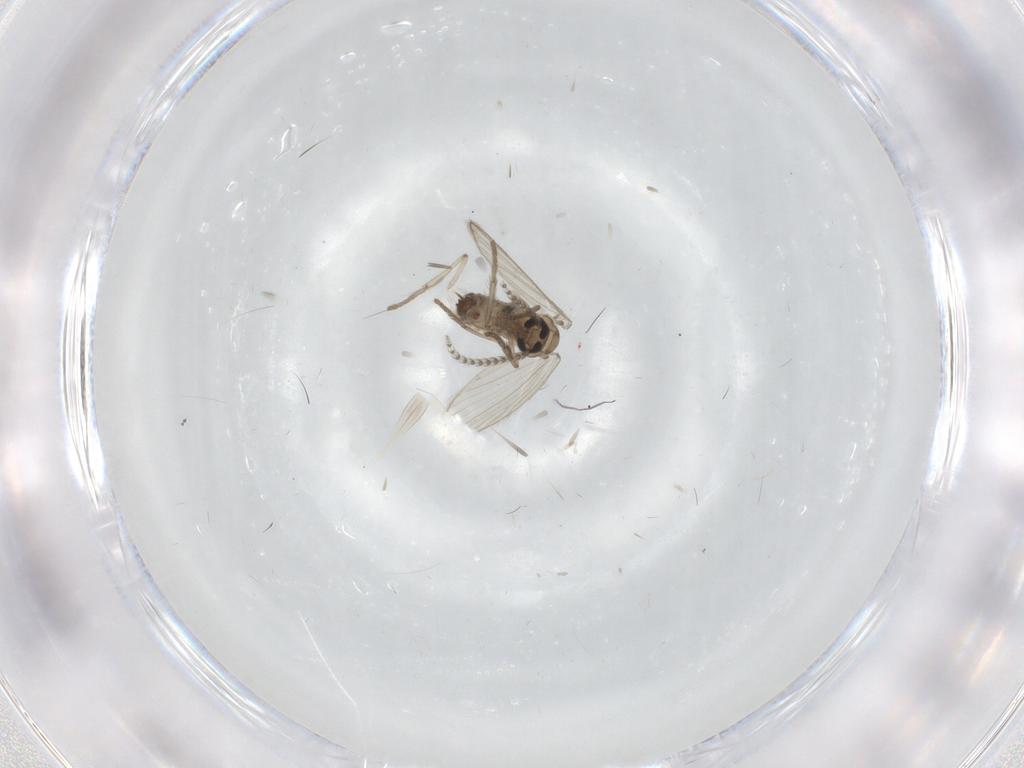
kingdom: Animalia
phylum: Arthropoda
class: Insecta
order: Diptera
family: Psychodidae
